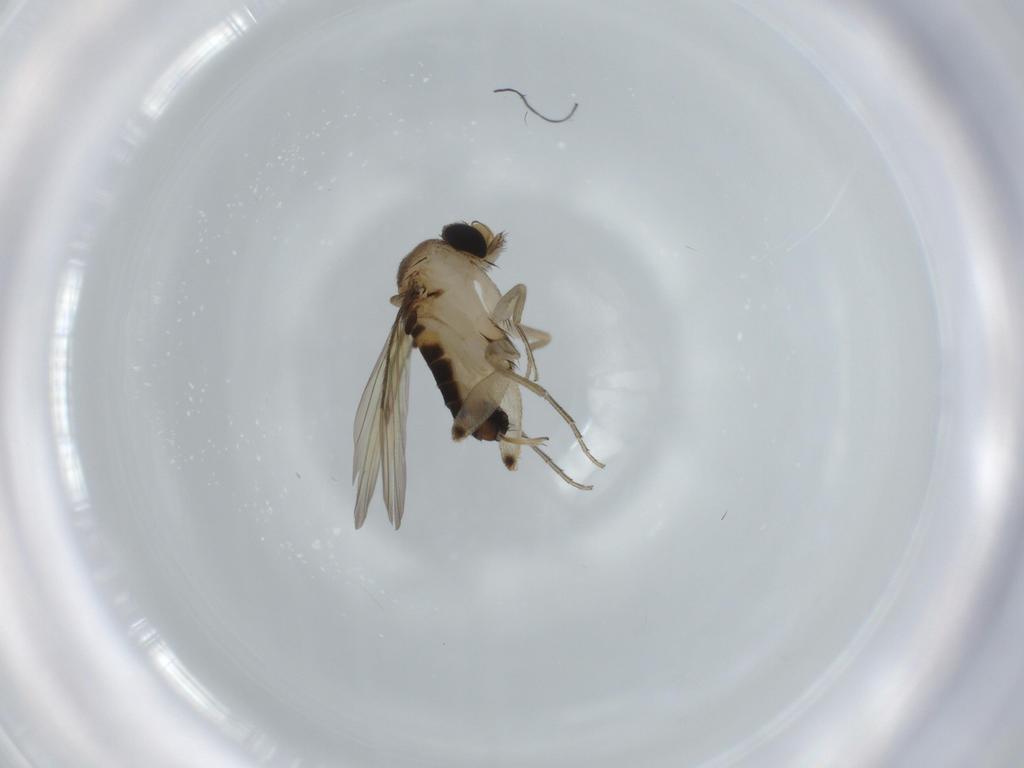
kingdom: Animalia
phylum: Arthropoda
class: Insecta
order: Diptera
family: Phoridae
